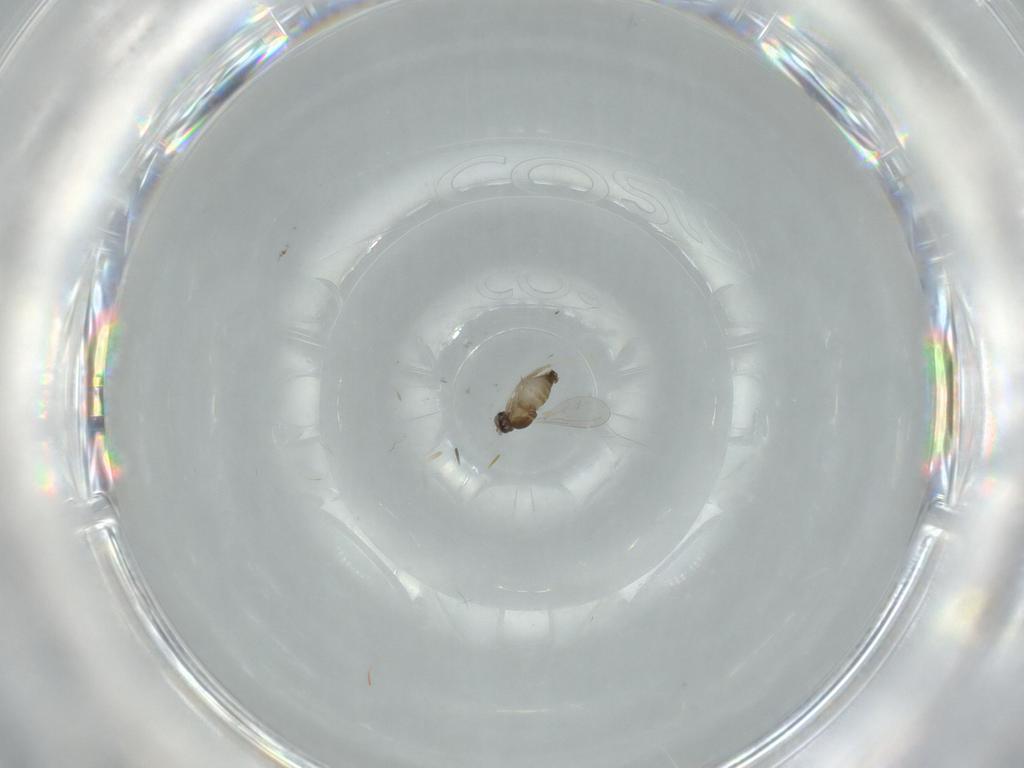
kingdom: Animalia
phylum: Arthropoda
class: Insecta
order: Diptera
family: Cecidomyiidae
